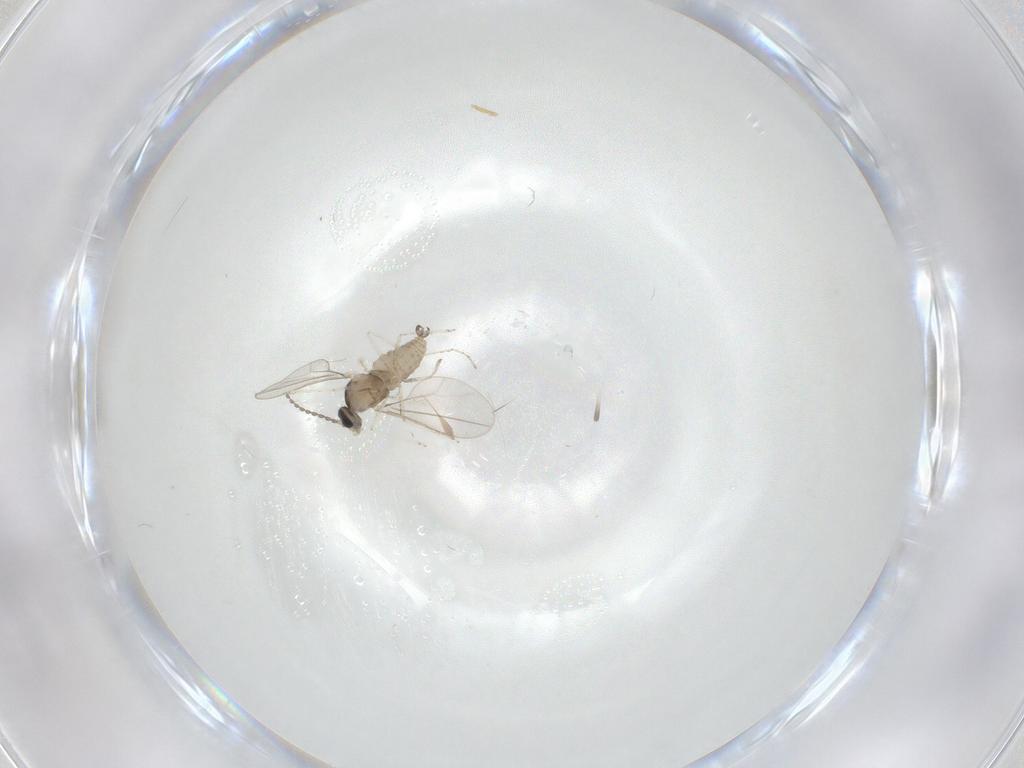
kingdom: Animalia
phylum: Arthropoda
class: Insecta
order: Diptera
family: Cecidomyiidae
